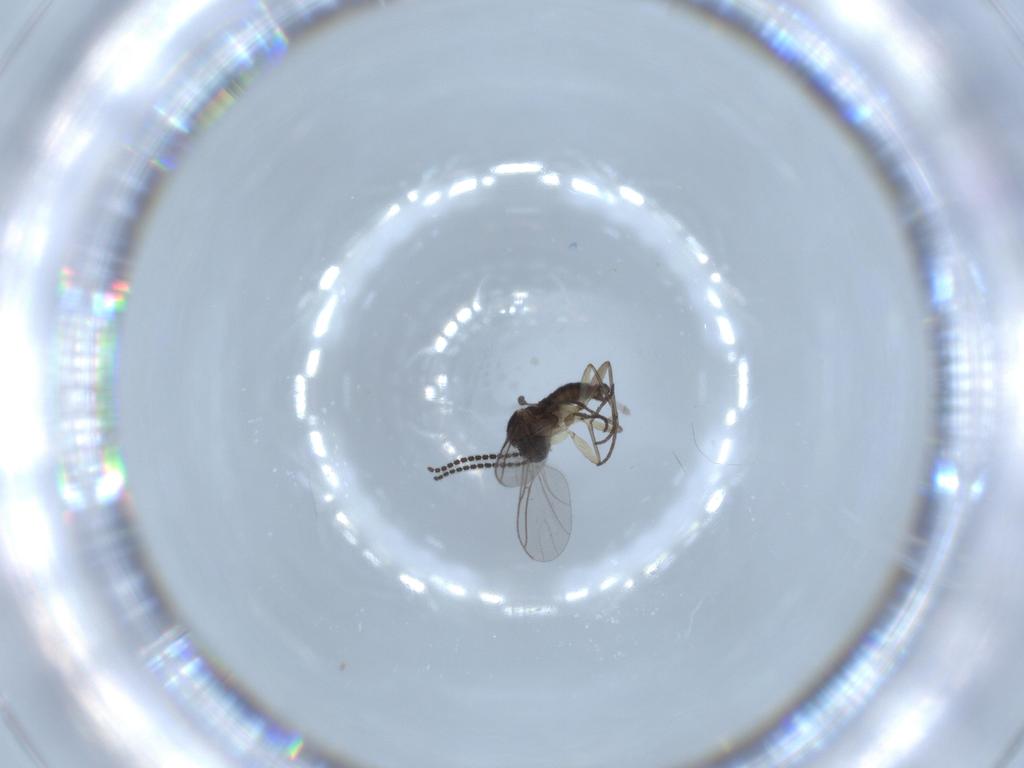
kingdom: Animalia
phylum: Arthropoda
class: Insecta
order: Diptera
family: Sciaridae
